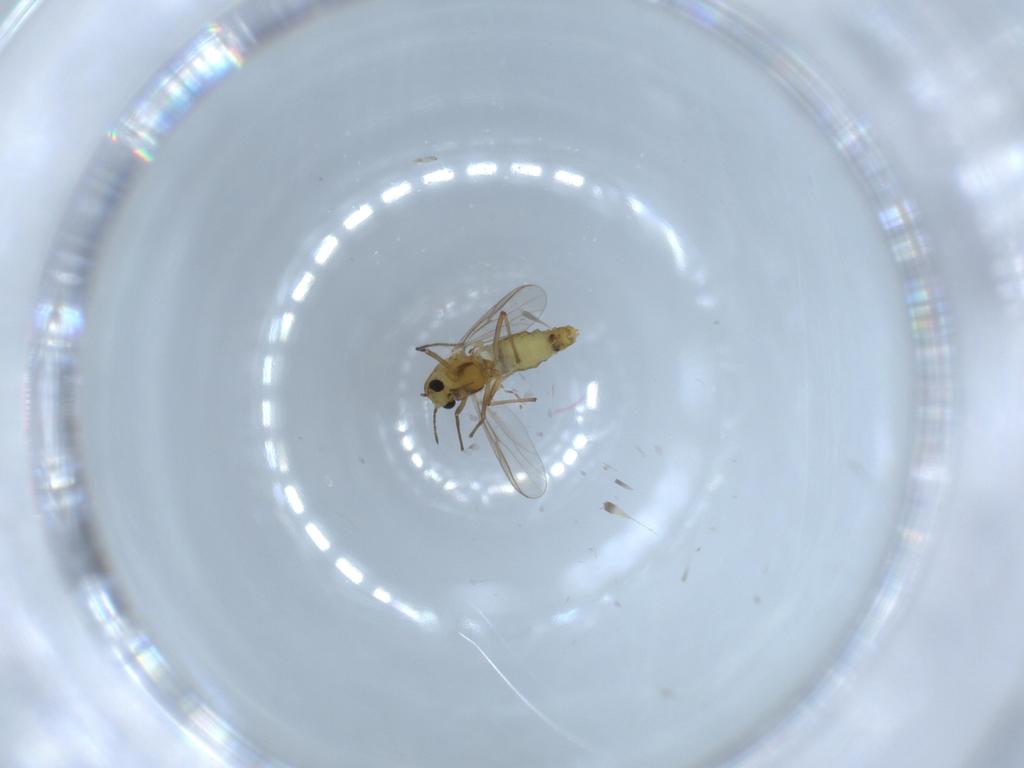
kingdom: Animalia
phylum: Arthropoda
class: Insecta
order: Diptera
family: Chironomidae
